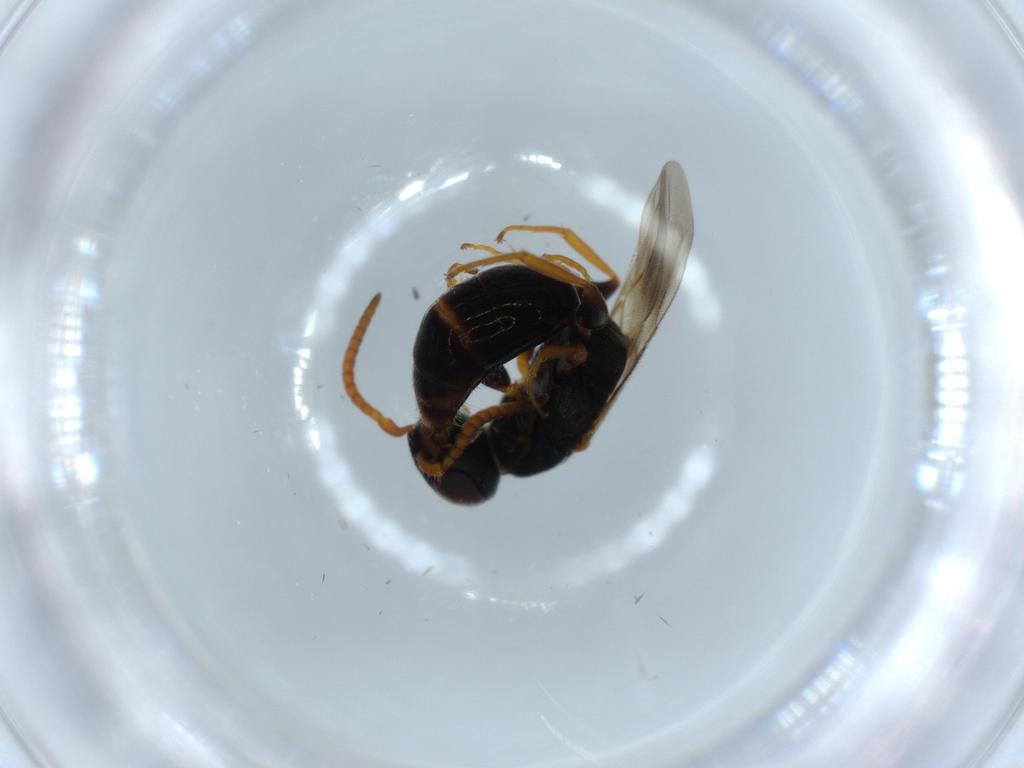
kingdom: Animalia
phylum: Arthropoda
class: Insecta
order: Hymenoptera
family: Bethylidae
